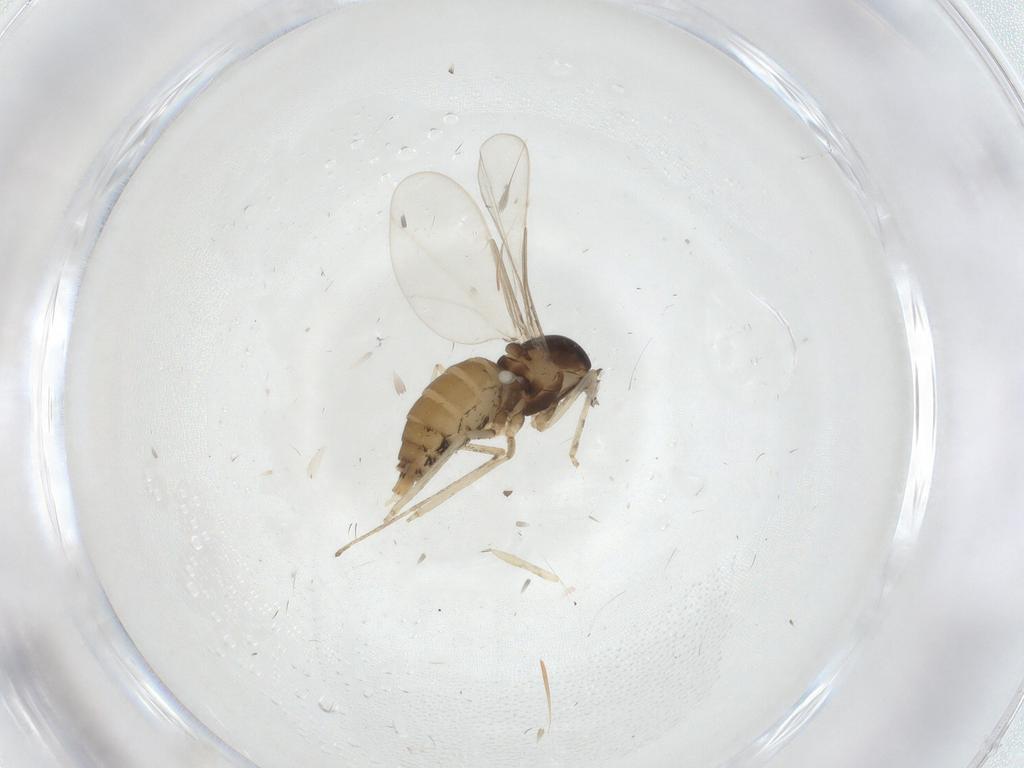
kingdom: Animalia
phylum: Arthropoda
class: Insecta
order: Diptera
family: Cecidomyiidae
